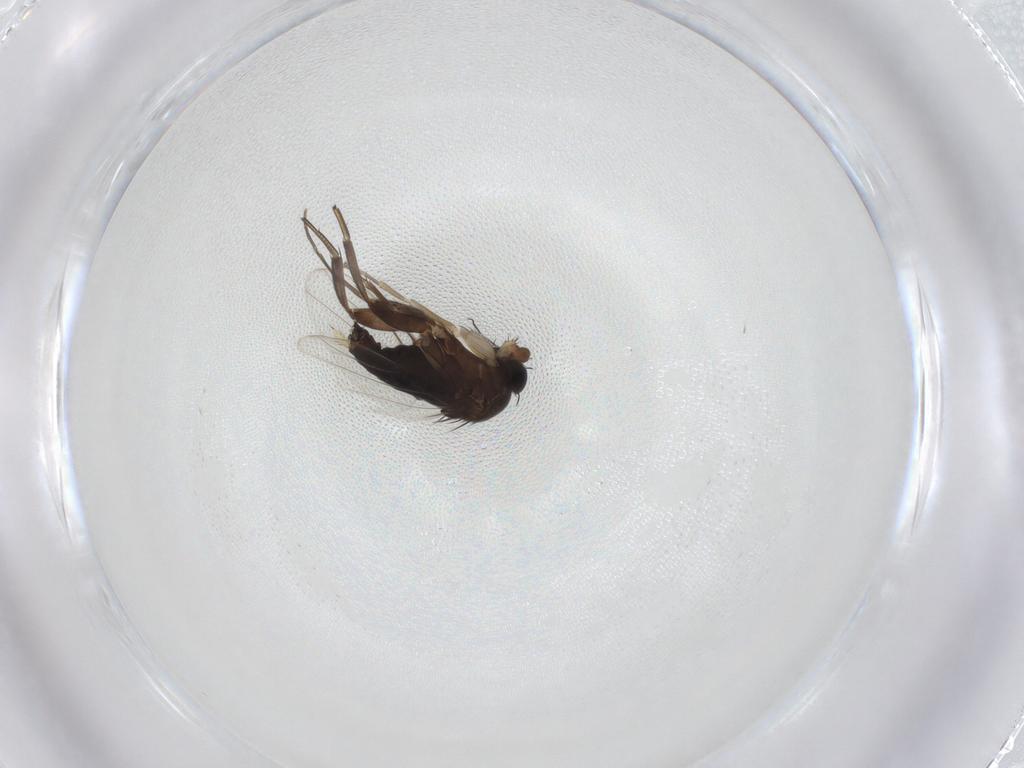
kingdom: Animalia
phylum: Arthropoda
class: Insecta
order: Diptera
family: Phoridae
